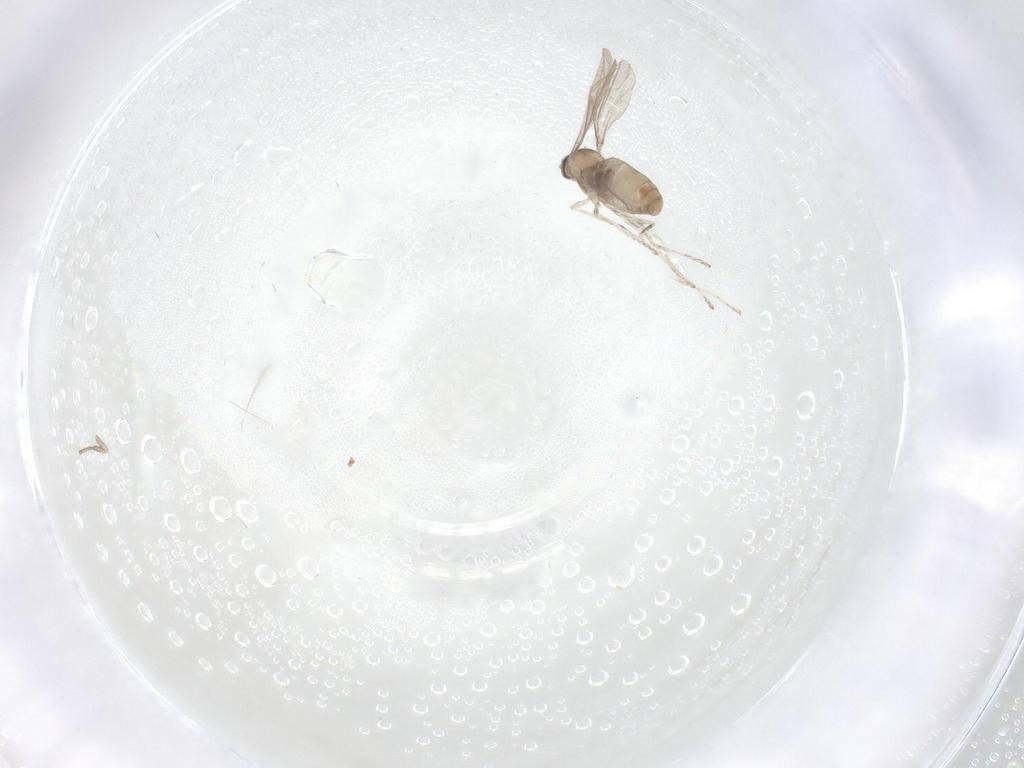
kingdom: Animalia
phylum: Arthropoda
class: Insecta
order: Diptera
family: Psychodidae
